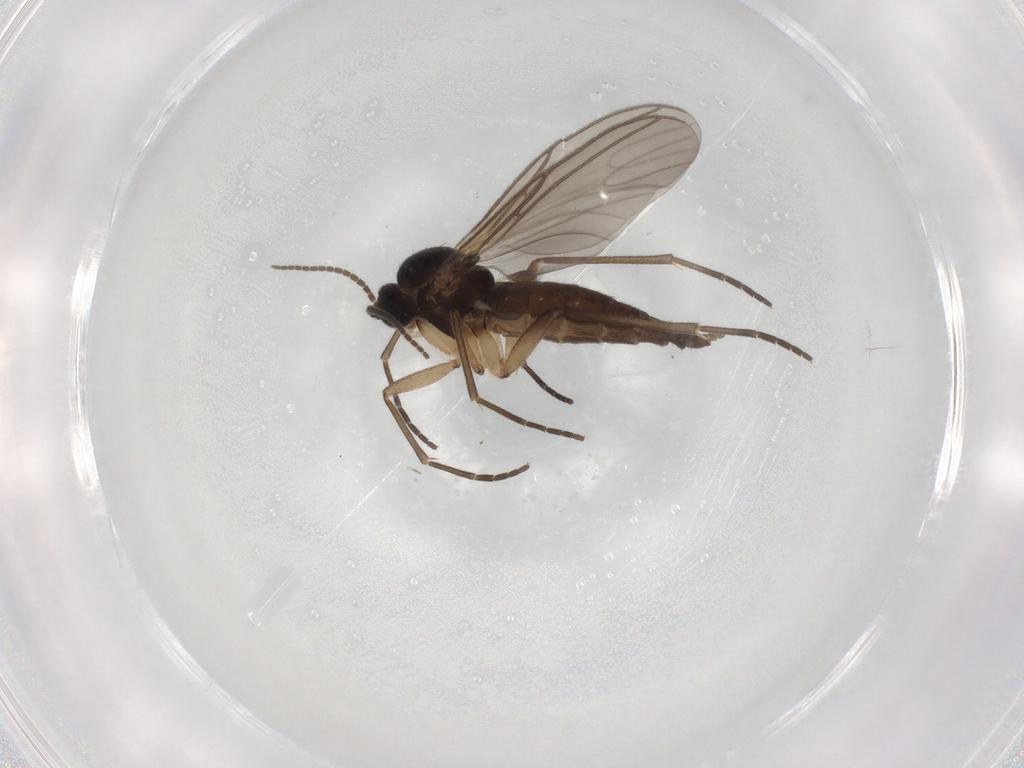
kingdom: Animalia
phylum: Arthropoda
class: Insecta
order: Diptera
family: Sciaridae
